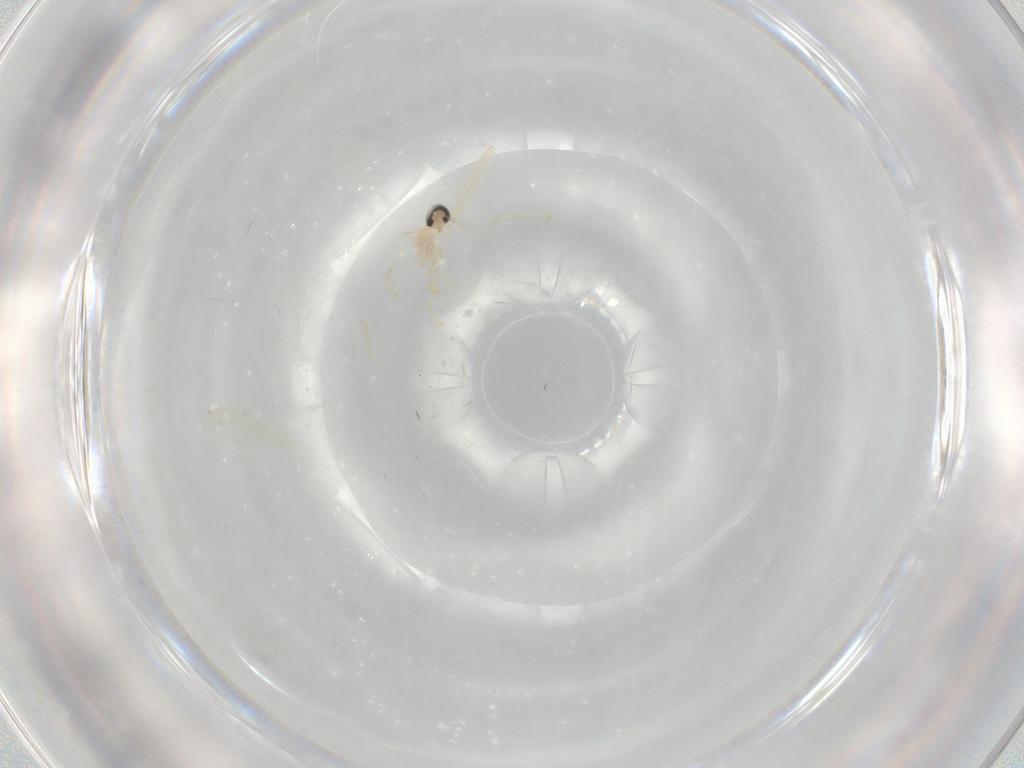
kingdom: Animalia
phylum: Arthropoda
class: Insecta
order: Diptera
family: Cecidomyiidae
